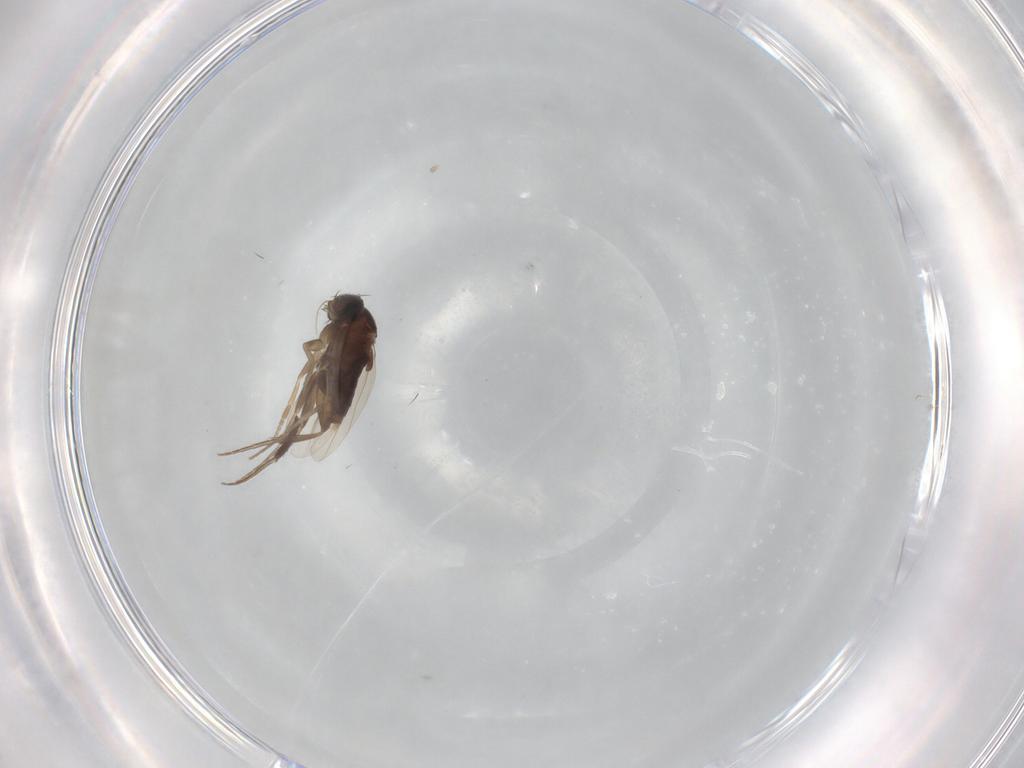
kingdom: Animalia
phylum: Arthropoda
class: Insecta
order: Diptera
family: Phoridae
